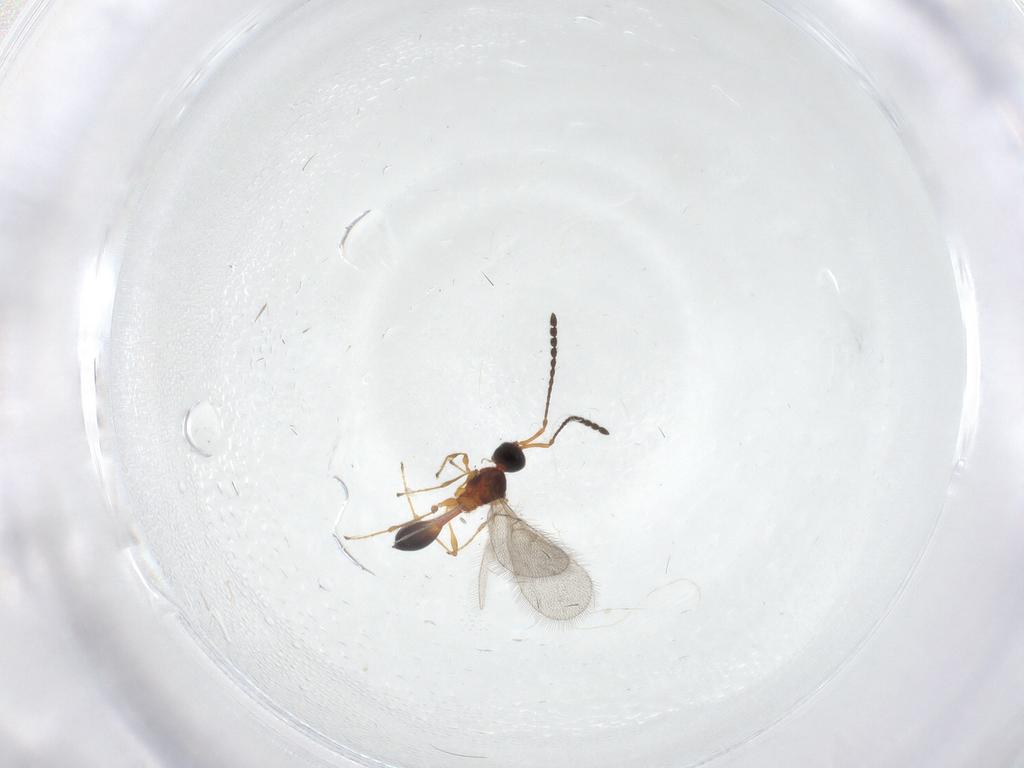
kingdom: Animalia
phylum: Arthropoda
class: Insecta
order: Hymenoptera
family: Diapriidae
